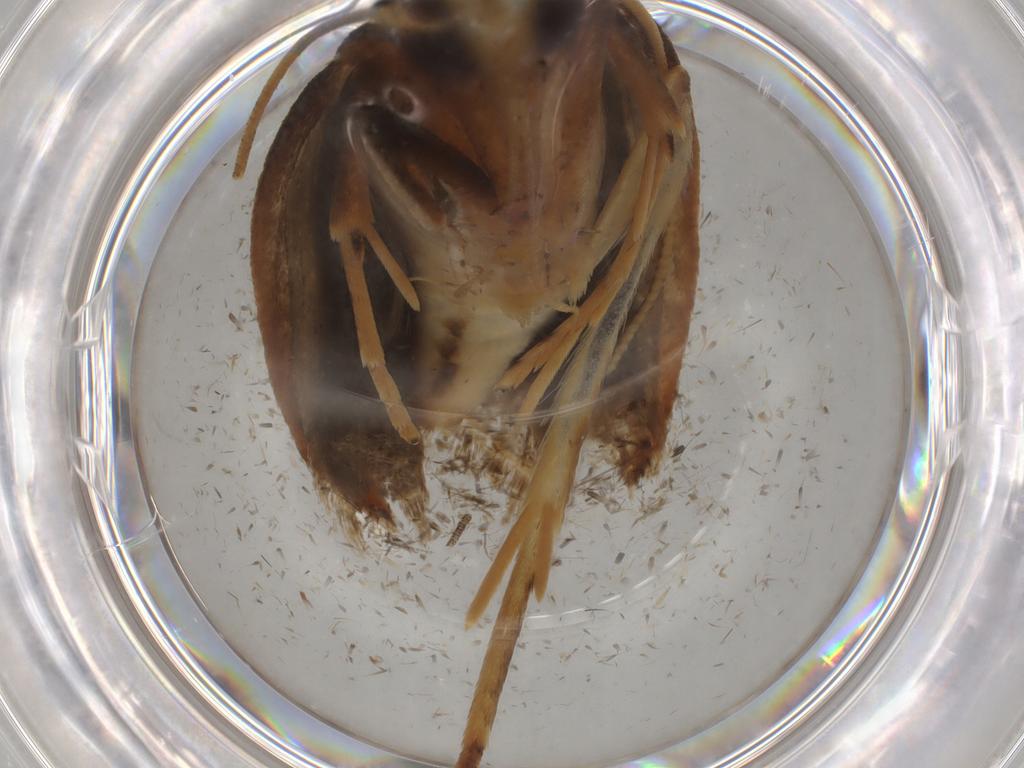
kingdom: Animalia
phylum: Arthropoda
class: Insecta
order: Lepidoptera
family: Gelechiidae
